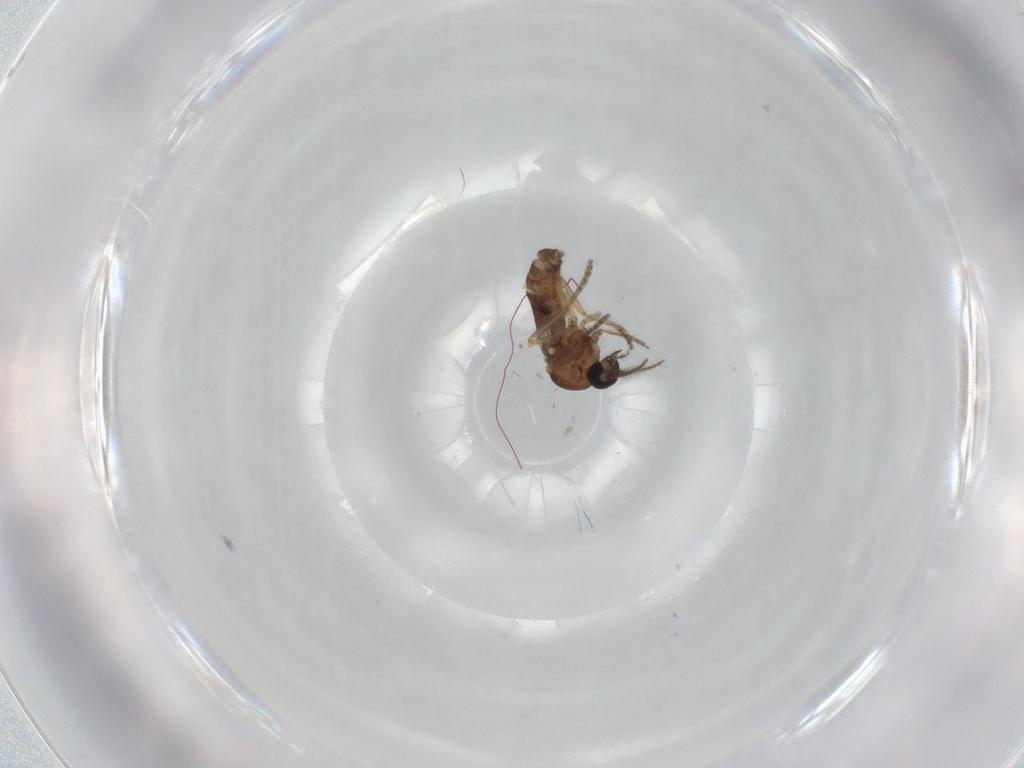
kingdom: Animalia
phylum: Arthropoda
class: Insecta
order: Diptera
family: Ceratopogonidae
